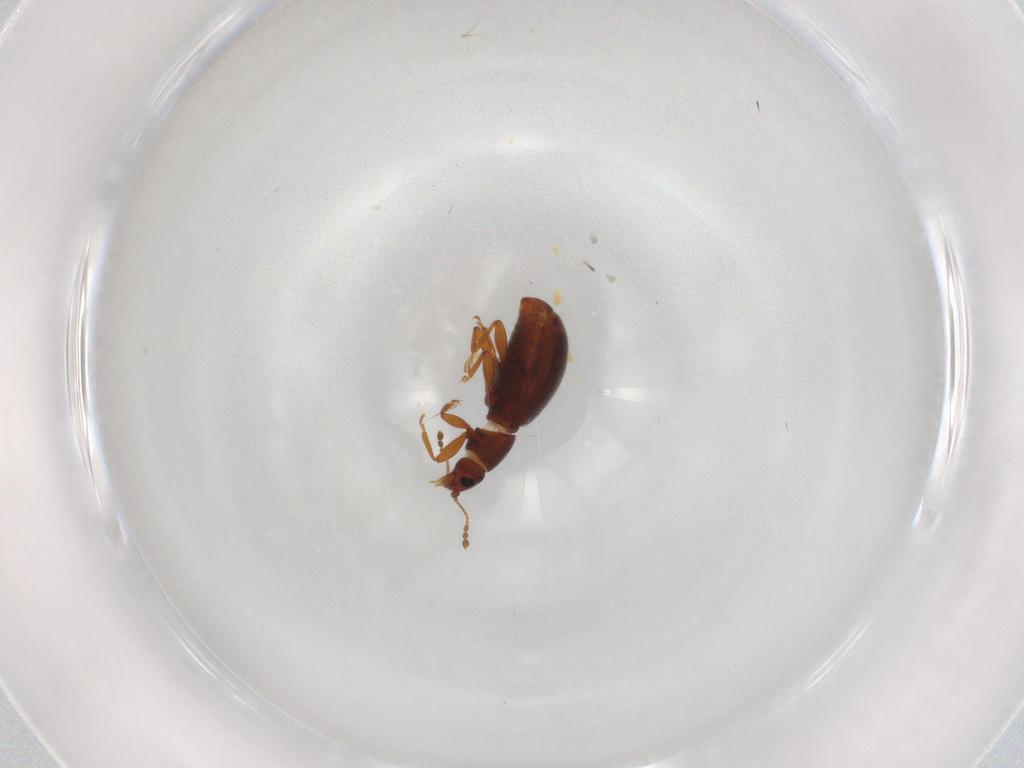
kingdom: Animalia
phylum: Arthropoda
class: Insecta
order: Coleoptera
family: Latridiidae
